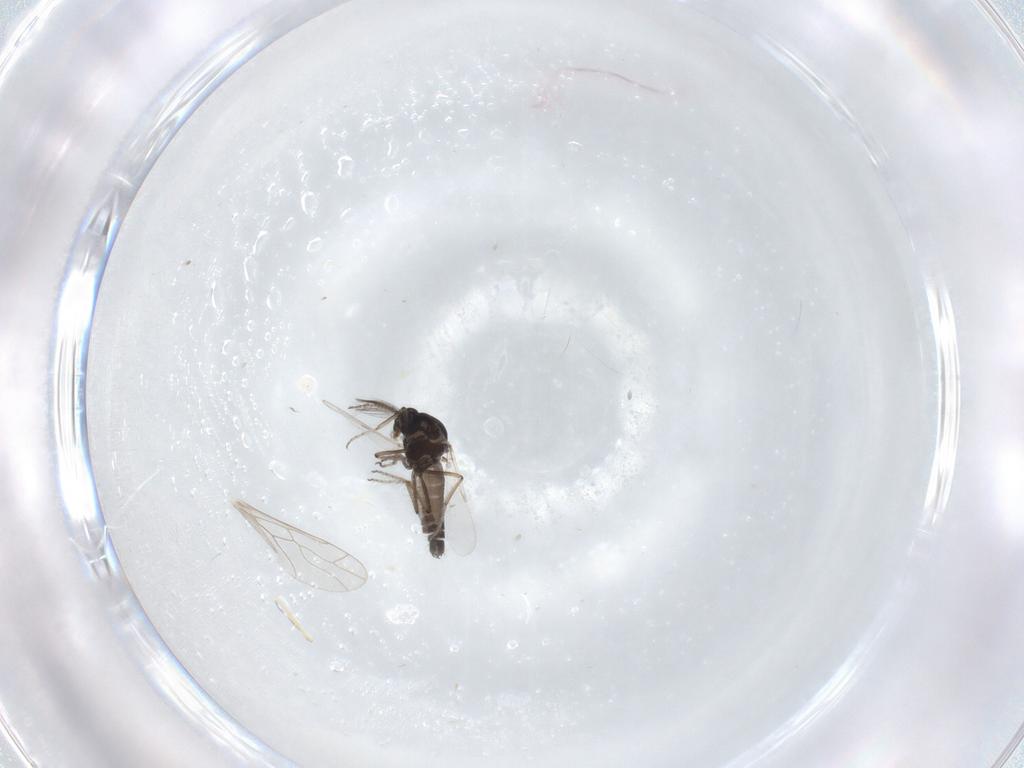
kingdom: Animalia
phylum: Arthropoda
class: Insecta
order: Diptera
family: Ceratopogonidae
